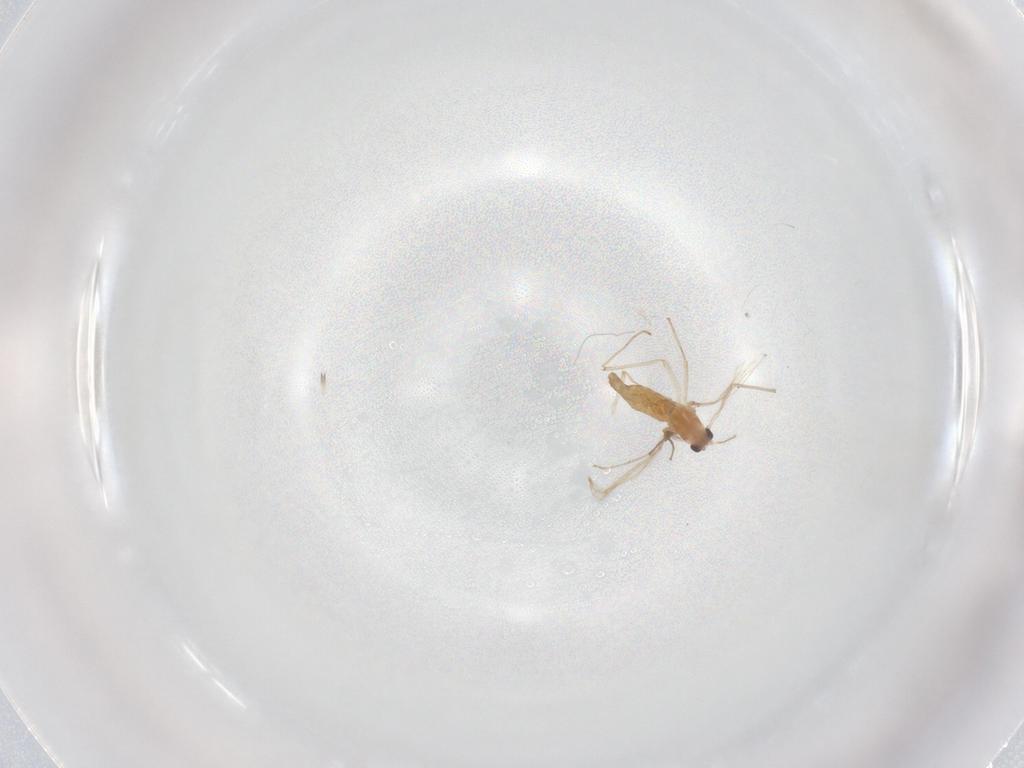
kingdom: Animalia
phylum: Arthropoda
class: Insecta
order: Diptera
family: Chironomidae
